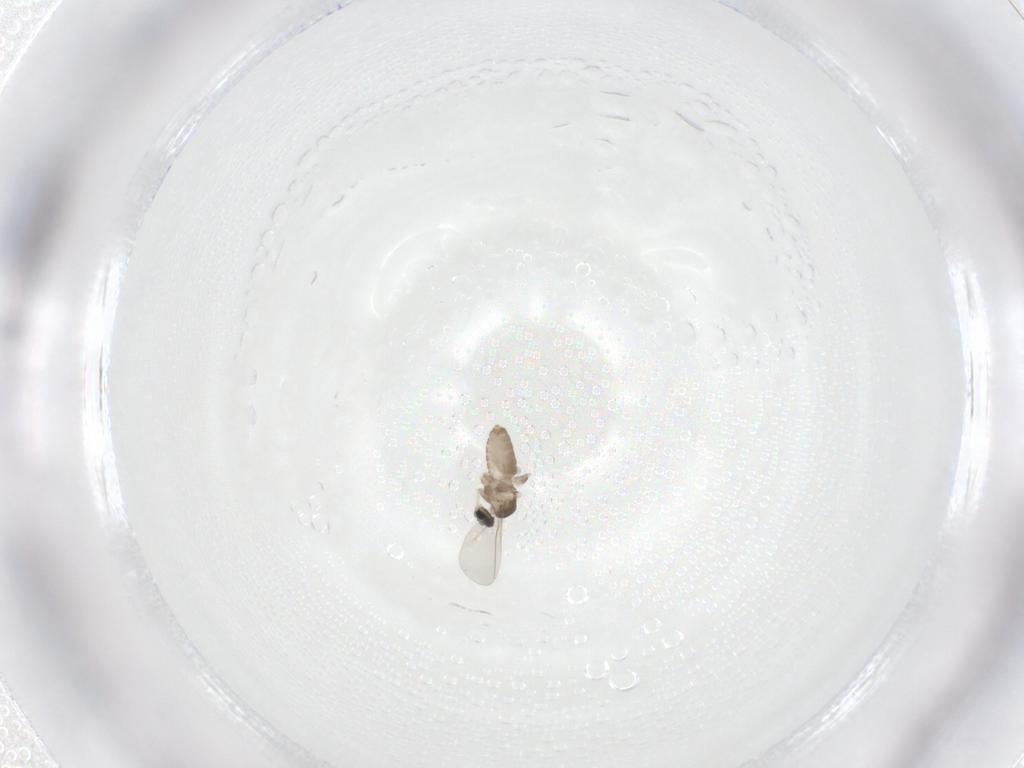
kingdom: Animalia
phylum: Arthropoda
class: Insecta
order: Diptera
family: Cecidomyiidae
